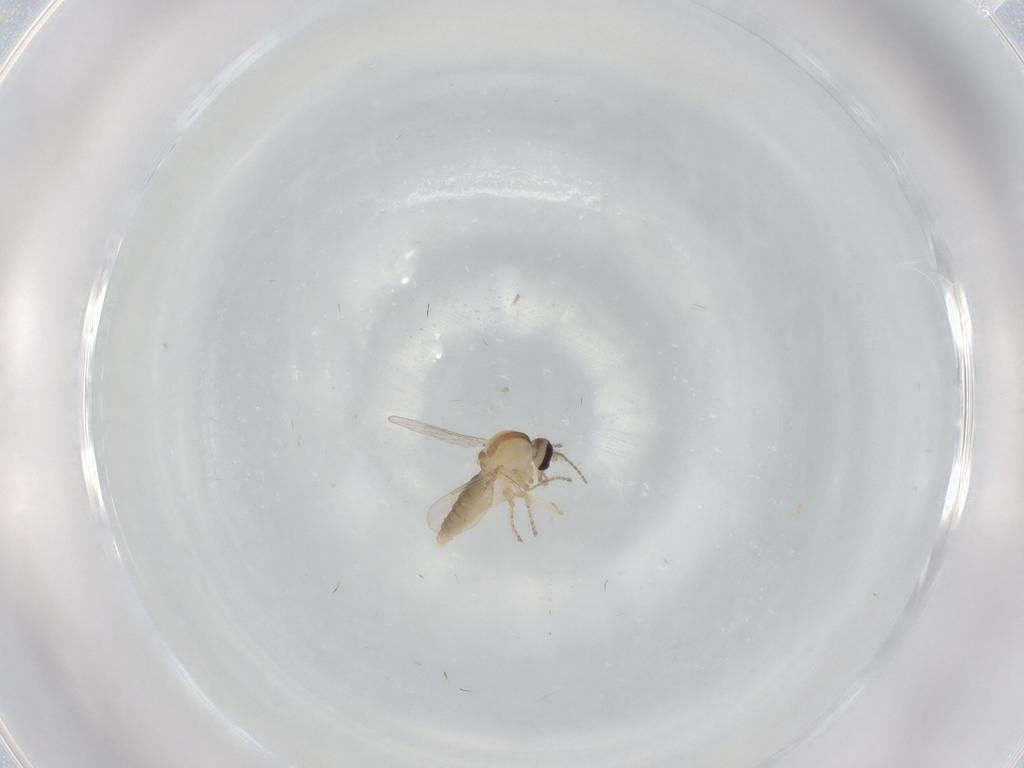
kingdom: Animalia
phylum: Arthropoda
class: Insecta
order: Diptera
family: Ceratopogonidae
